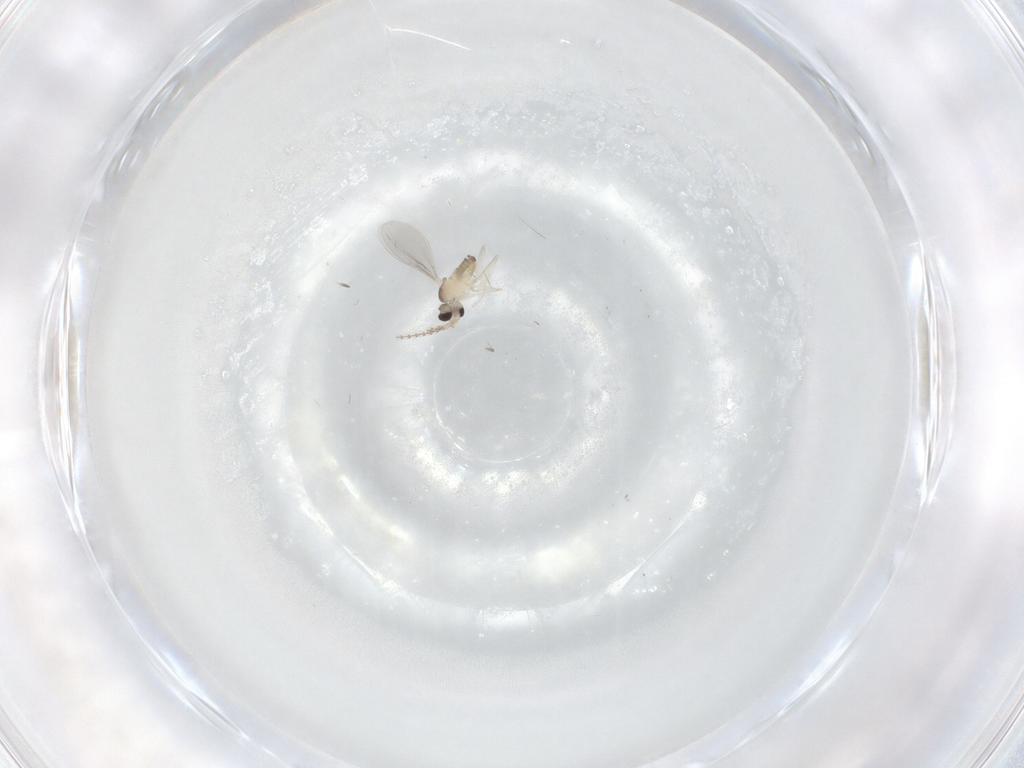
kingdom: Animalia
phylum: Arthropoda
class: Insecta
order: Diptera
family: Cecidomyiidae
